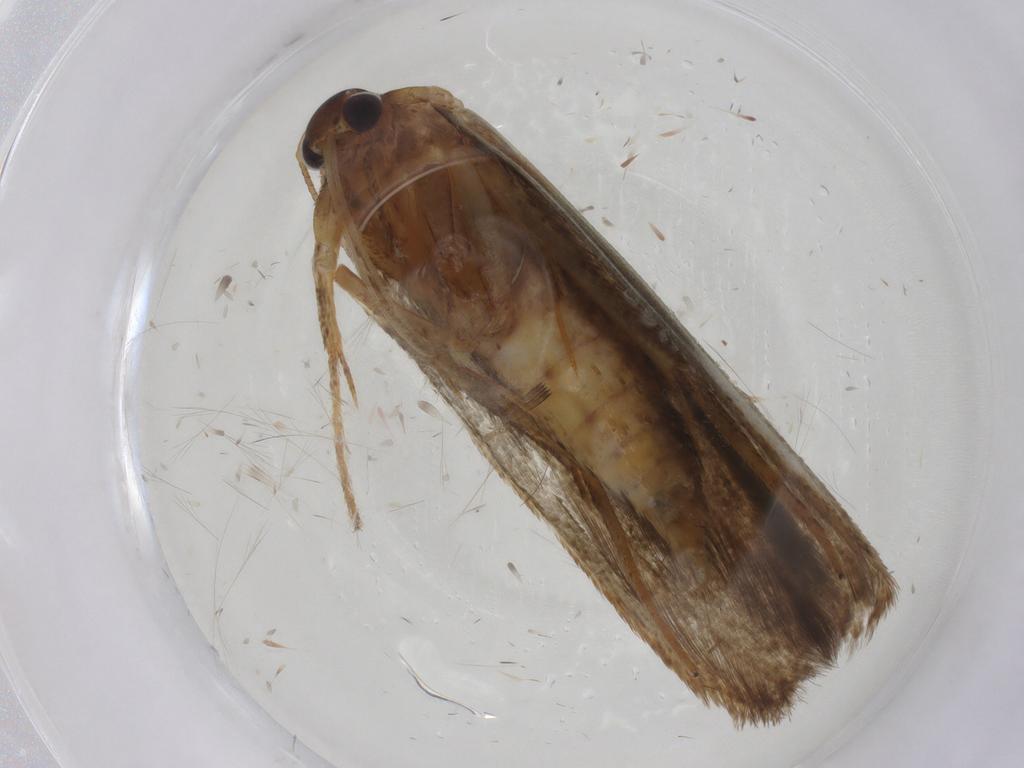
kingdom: Animalia
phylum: Arthropoda
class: Insecta
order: Lepidoptera
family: Blastobasidae
